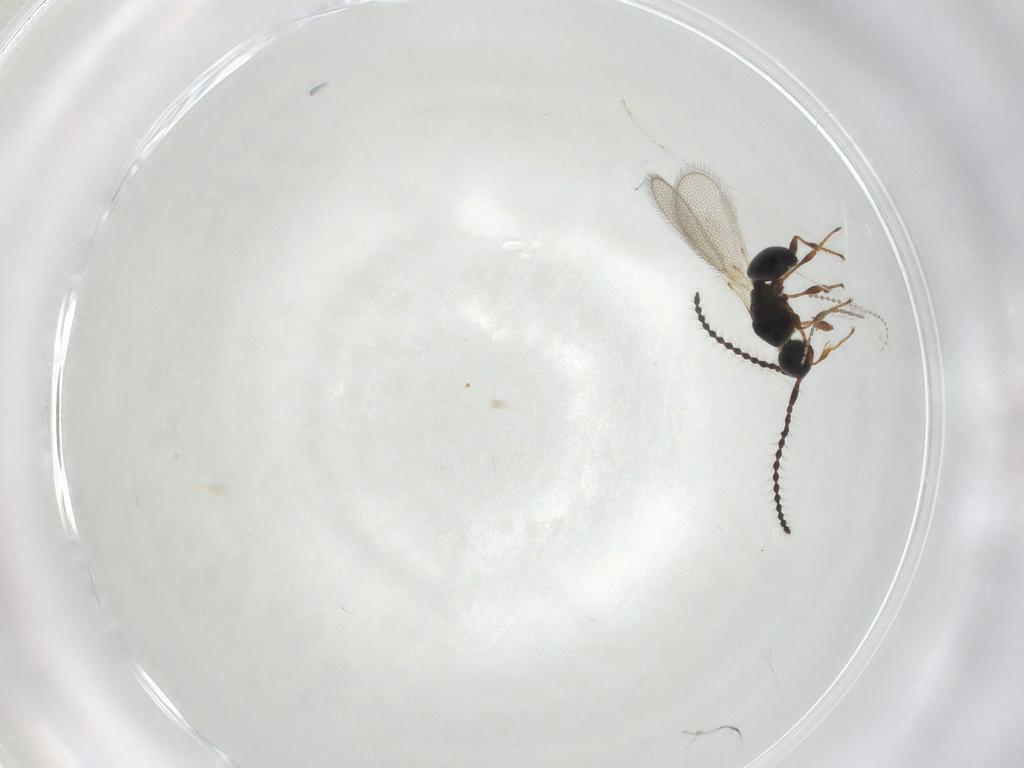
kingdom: Animalia
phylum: Arthropoda
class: Insecta
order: Hymenoptera
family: Diapriidae
